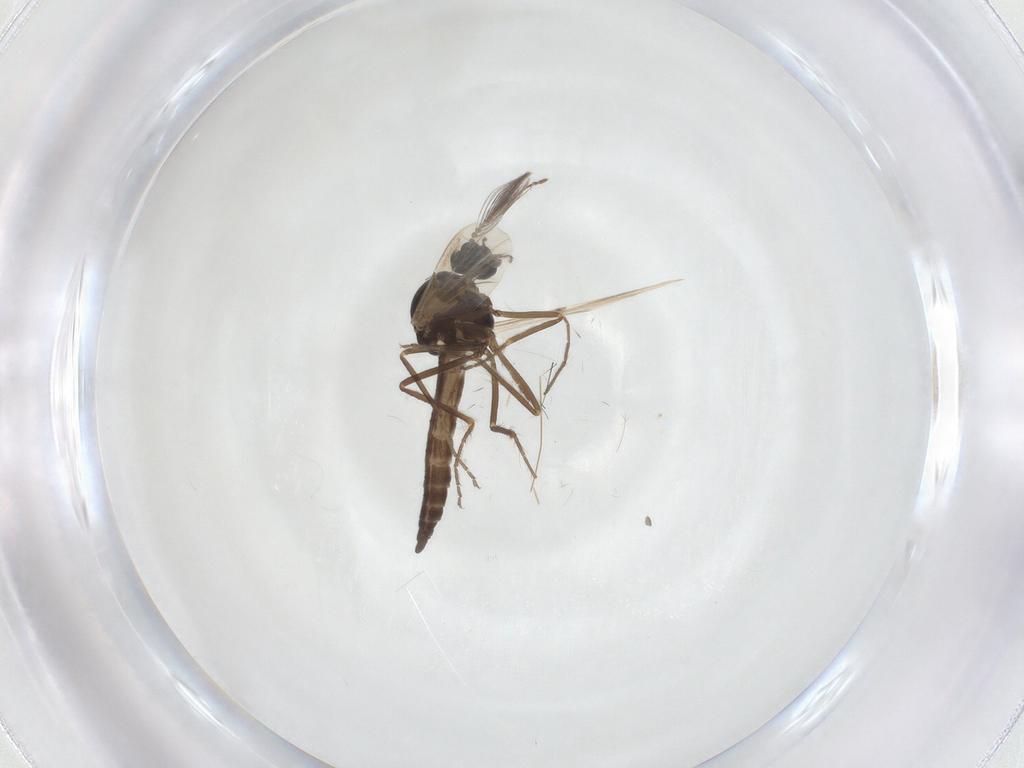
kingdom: Animalia
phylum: Arthropoda
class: Insecta
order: Diptera
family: Ceratopogonidae
